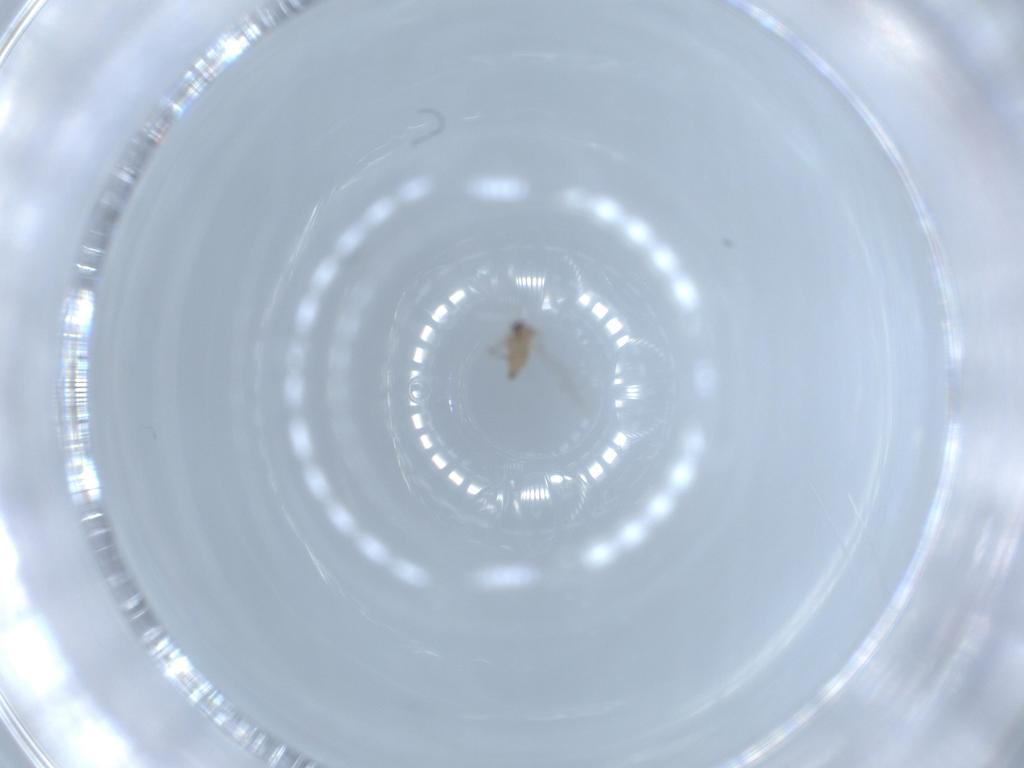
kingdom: Animalia
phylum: Arthropoda
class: Insecta
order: Diptera
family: Cecidomyiidae
